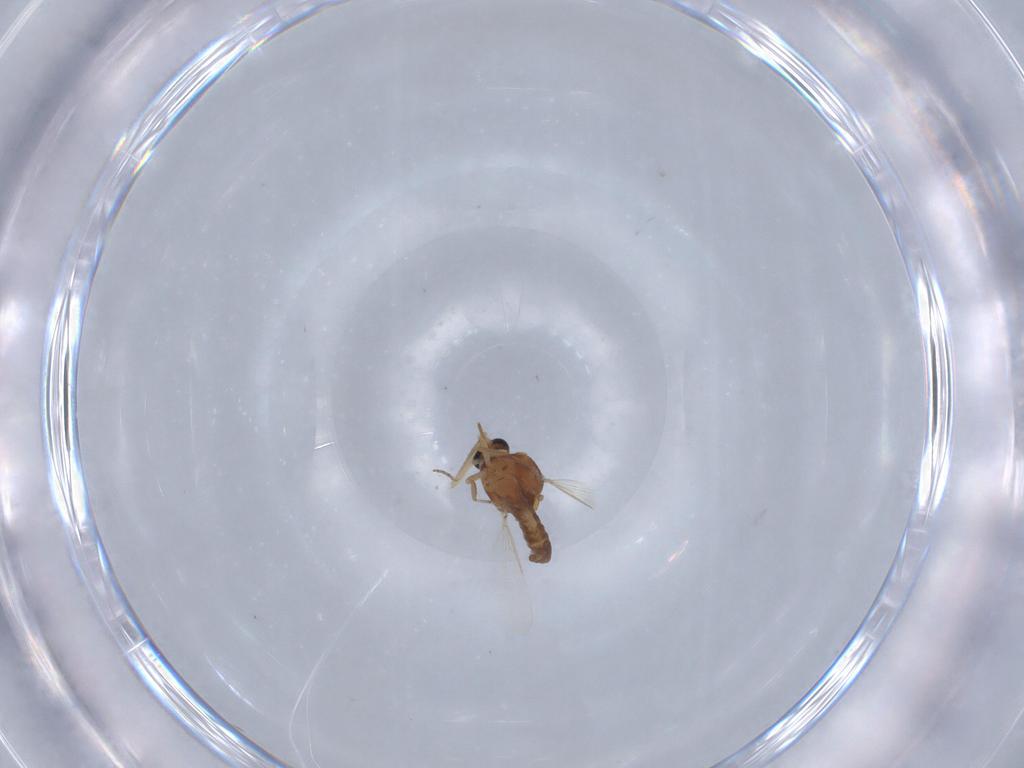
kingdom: Animalia
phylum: Arthropoda
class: Insecta
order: Diptera
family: Ceratopogonidae
